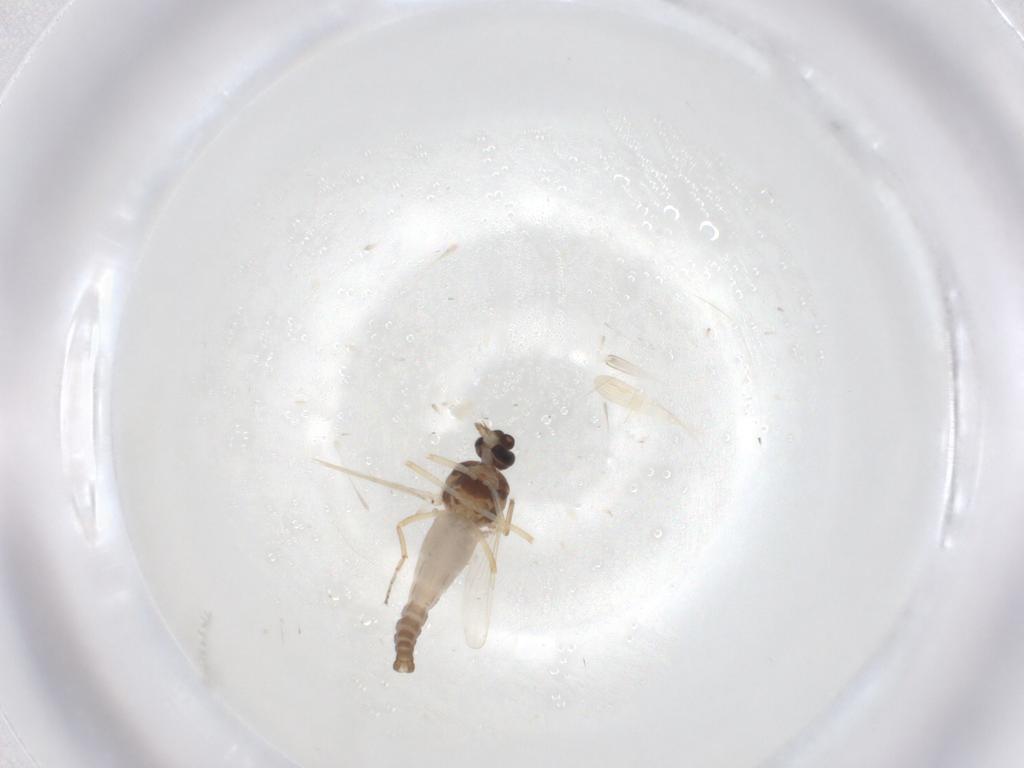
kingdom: Animalia
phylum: Arthropoda
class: Insecta
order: Diptera
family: Ceratopogonidae
